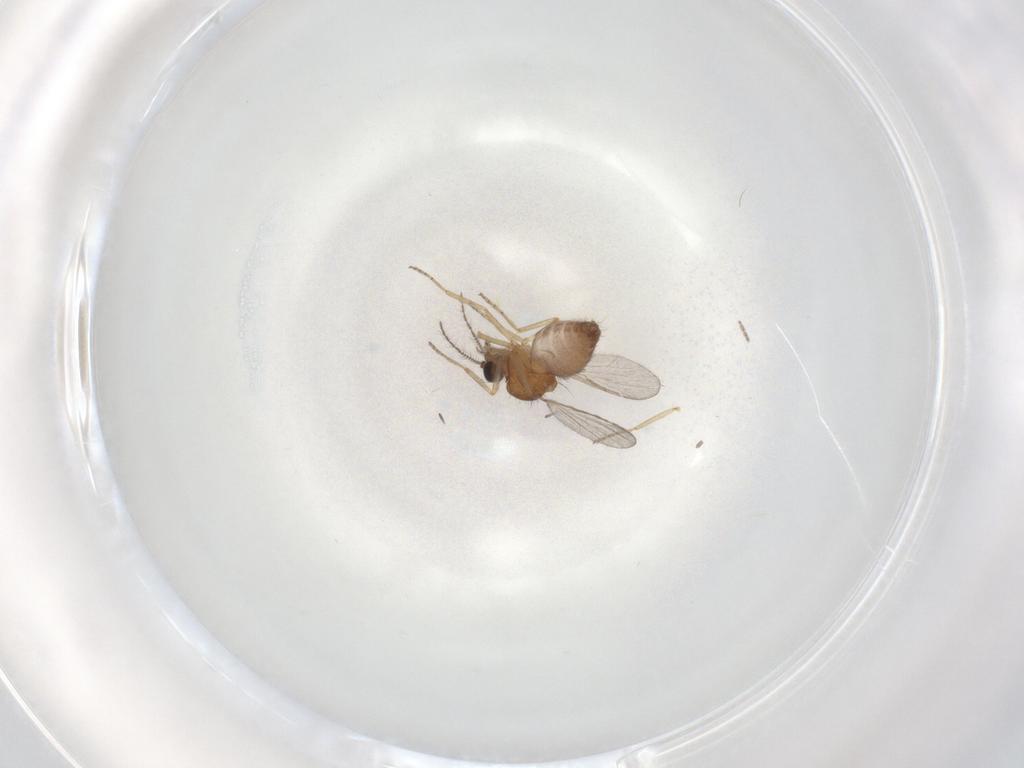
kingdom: Animalia
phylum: Arthropoda
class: Insecta
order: Diptera
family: Ceratopogonidae
